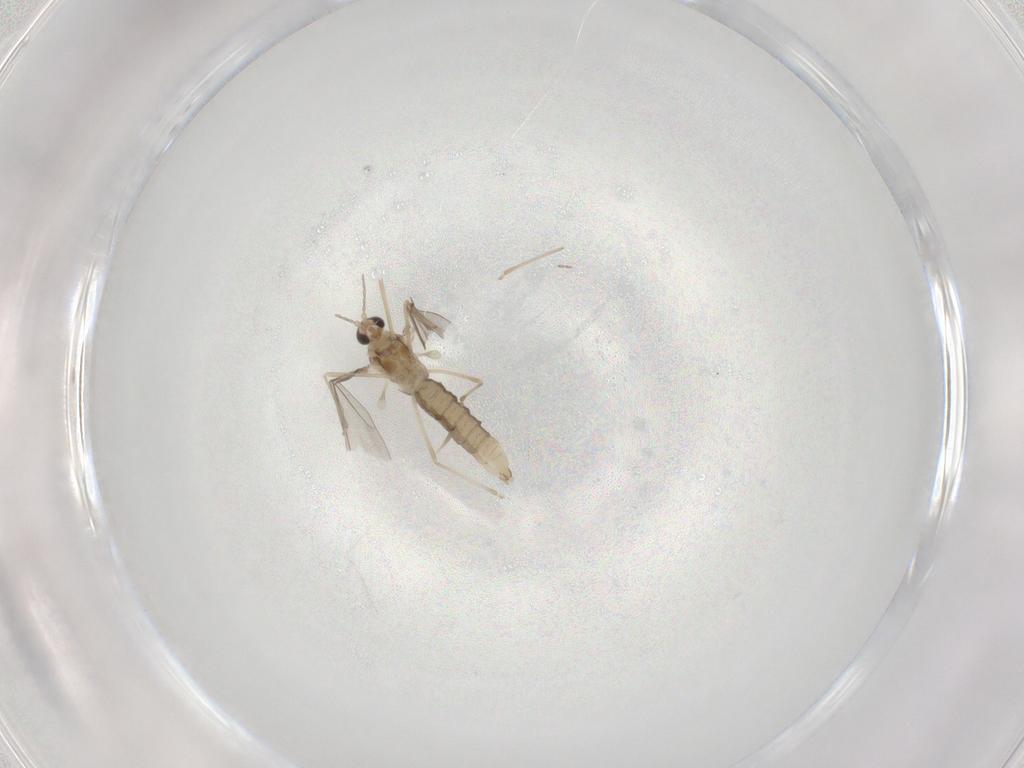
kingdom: Animalia
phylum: Arthropoda
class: Insecta
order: Diptera
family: Cecidomyiidae
